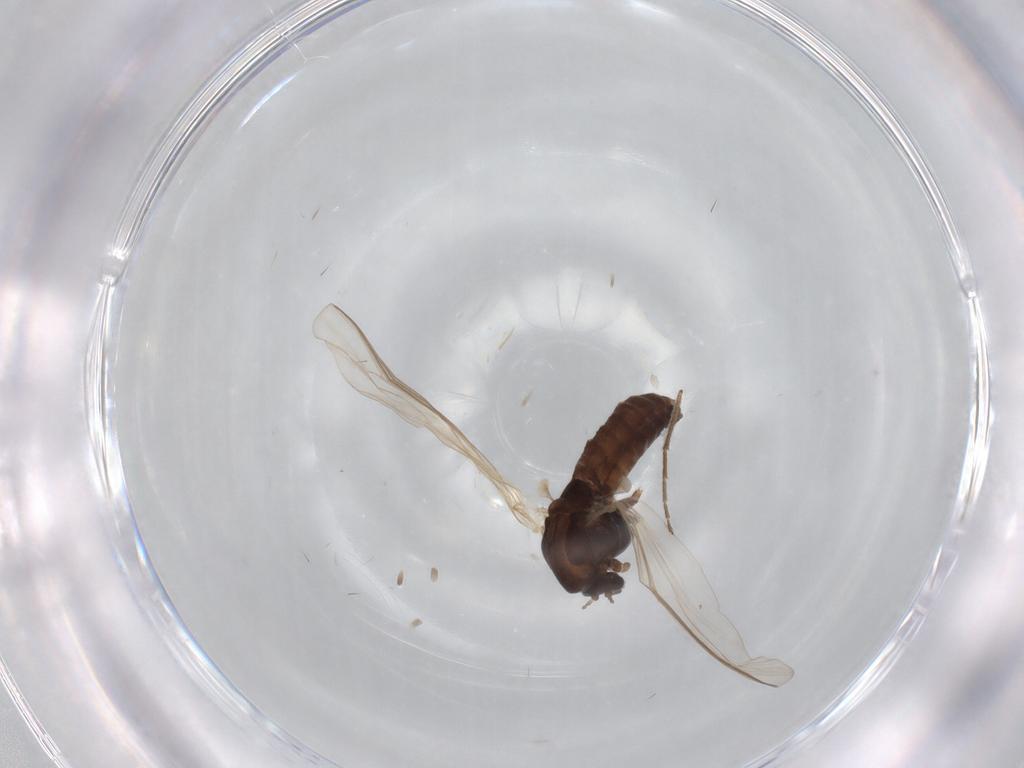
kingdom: Animalia
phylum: Arthropoda
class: Insecta
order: Diptera
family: Chironomidae
